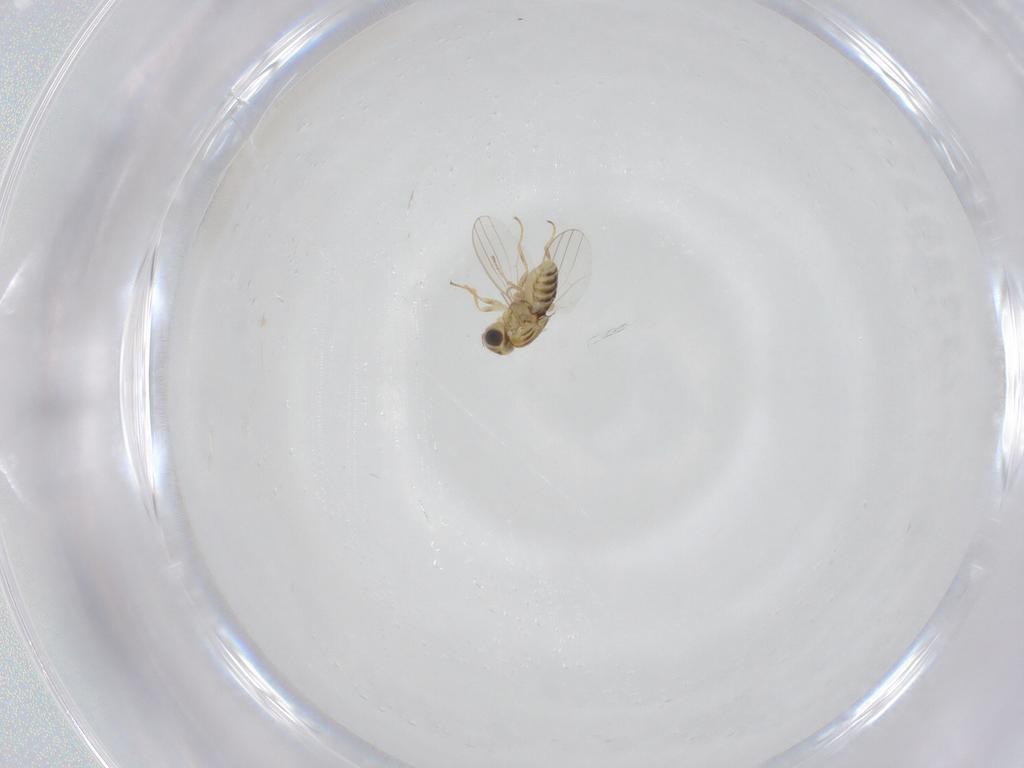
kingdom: Animalia
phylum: Arthropoda
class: Insecta
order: Diptera
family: Chyromyidae
